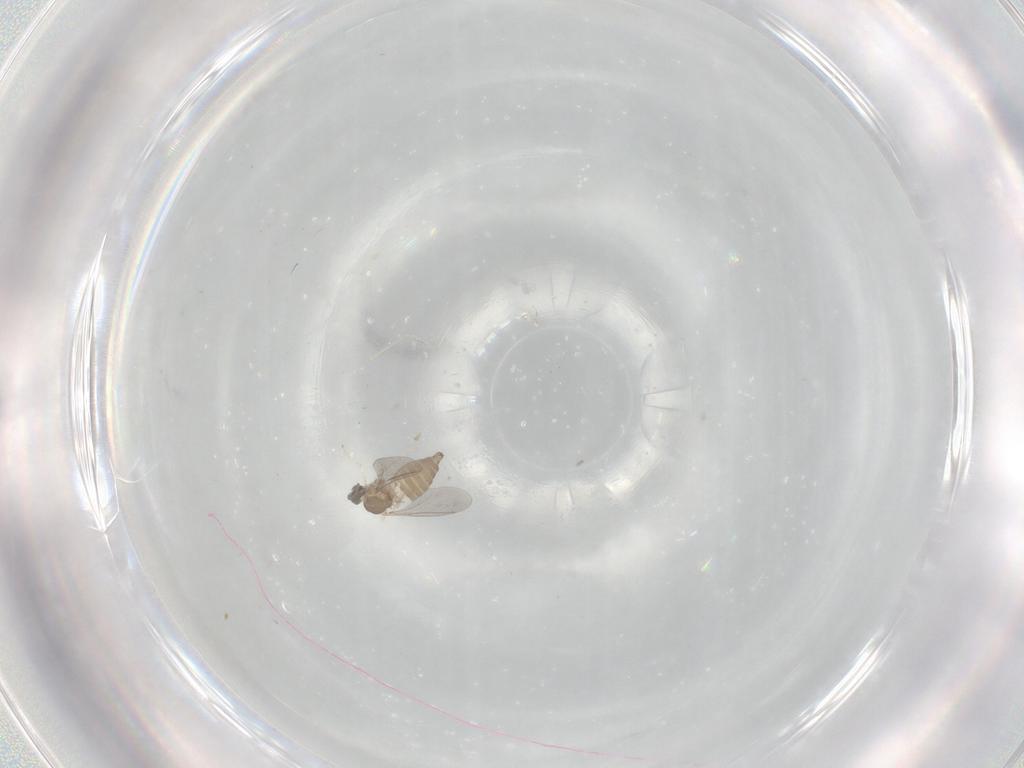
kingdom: Animalia
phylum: Arthropoda
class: Insecta
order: Diptera
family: Cecidomyiidae
